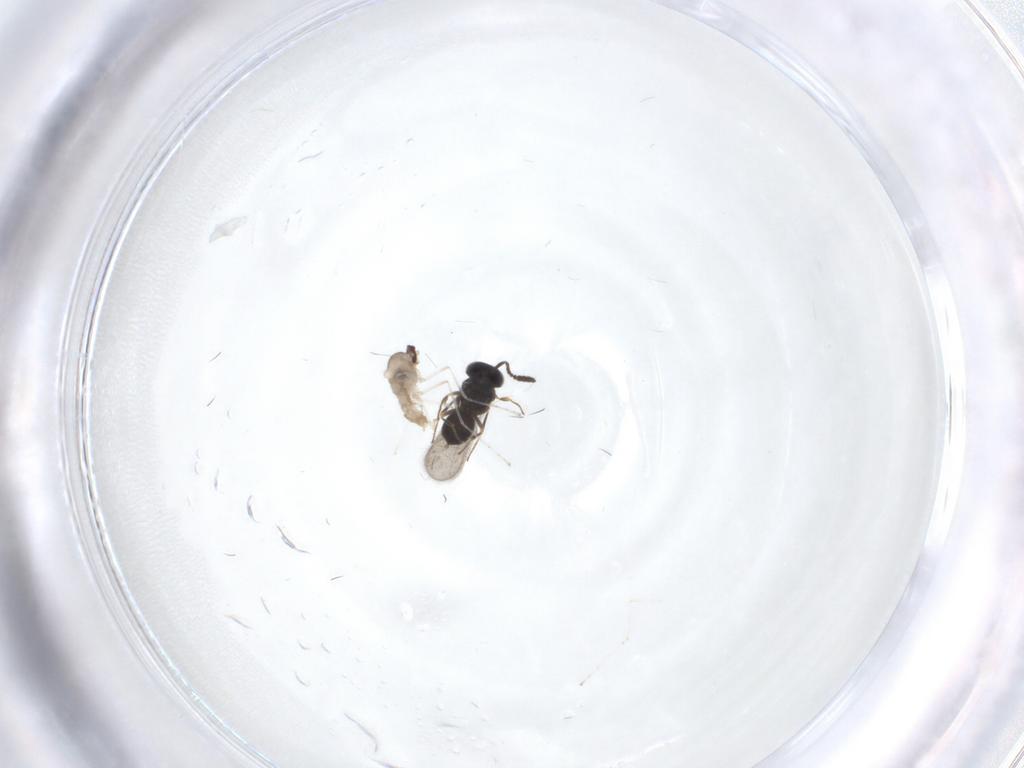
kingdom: Animalia
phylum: Arthropoda
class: Insecta
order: Hymenoptera
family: Scelionidae
